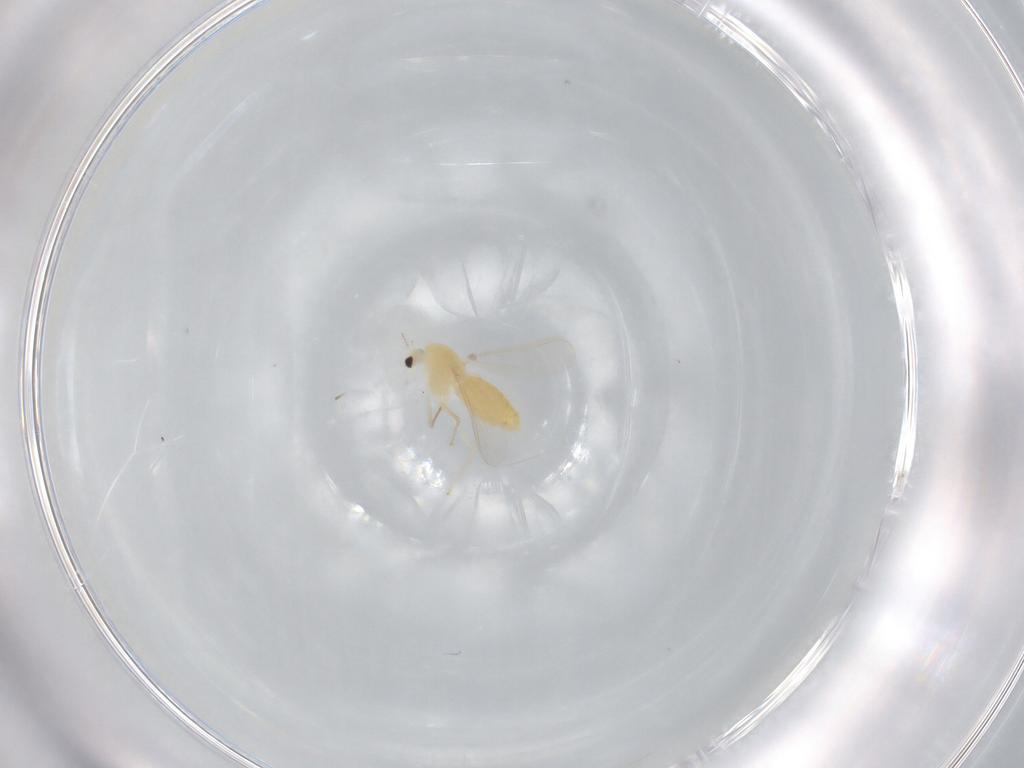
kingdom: Animalia
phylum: Arthropoda
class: Insecta
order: Diptera
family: Chironomidae
